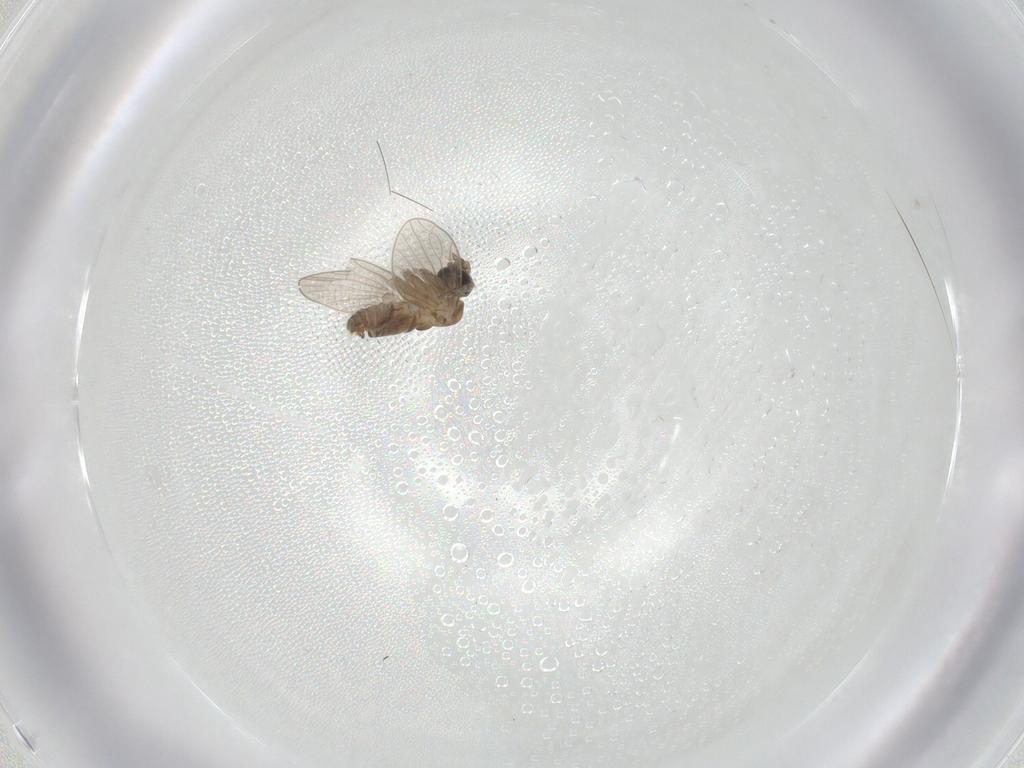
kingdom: Animalia
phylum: Arthropoda
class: Insecta
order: Diptera
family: Psychodidae
